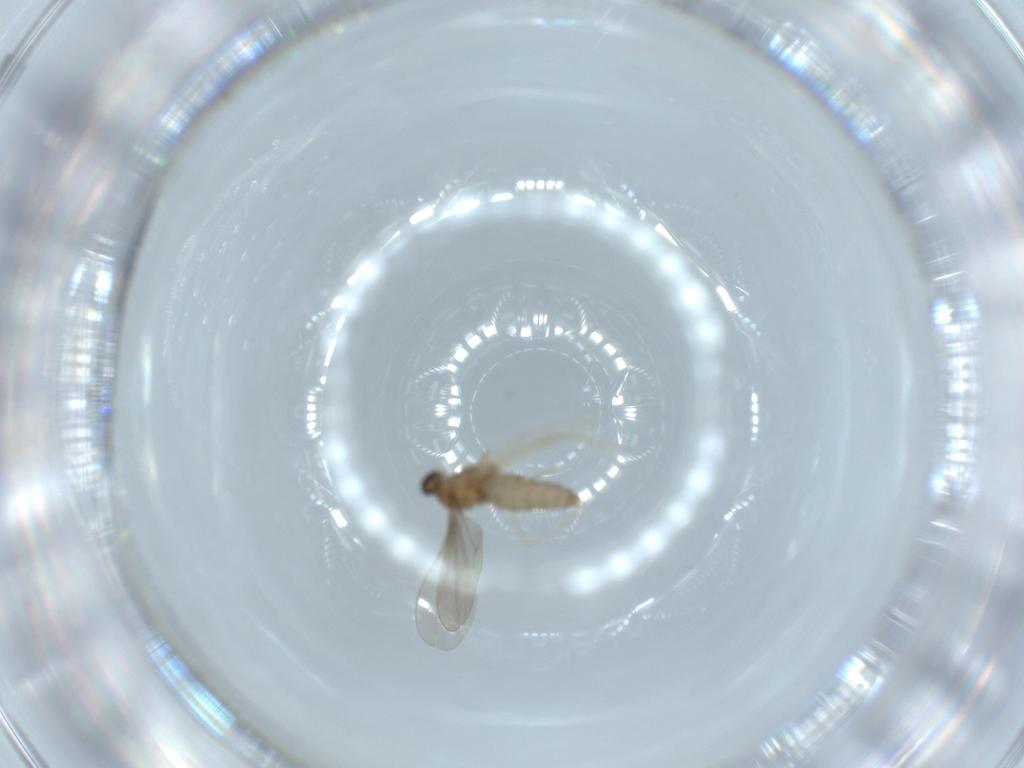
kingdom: Animalia
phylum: Arthropoda
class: Insecta
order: Diptera
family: Cecidomyiidae
